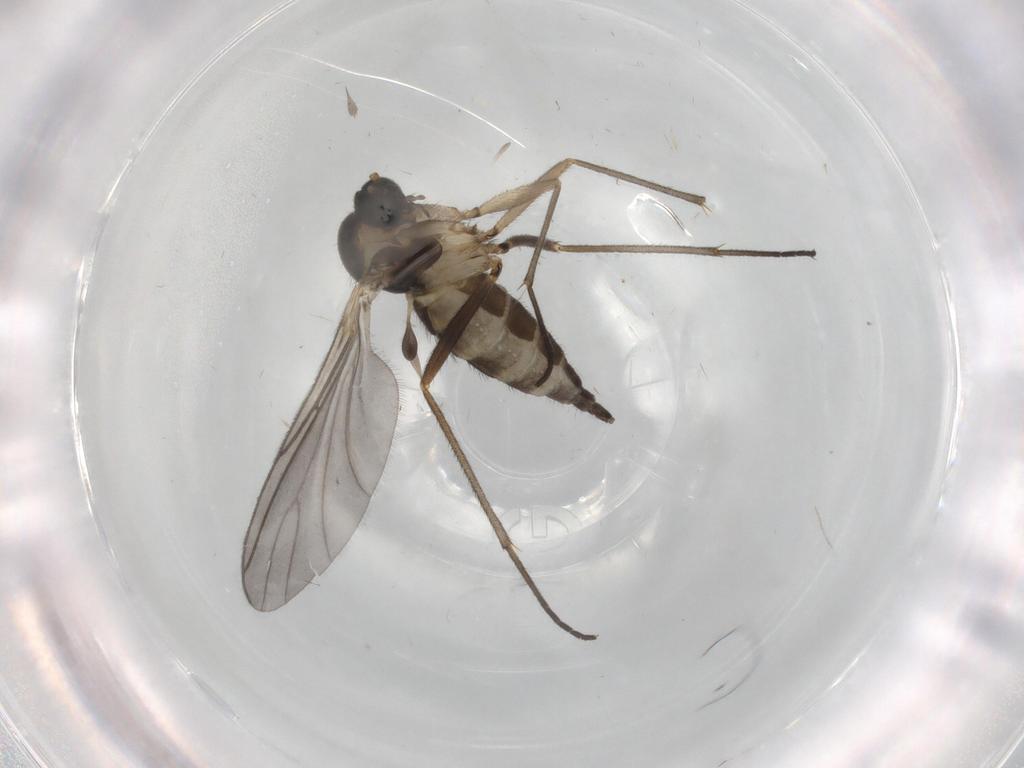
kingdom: Animalia
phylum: Arthropoda
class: Insecta
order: Diptera
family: Sciaridae
